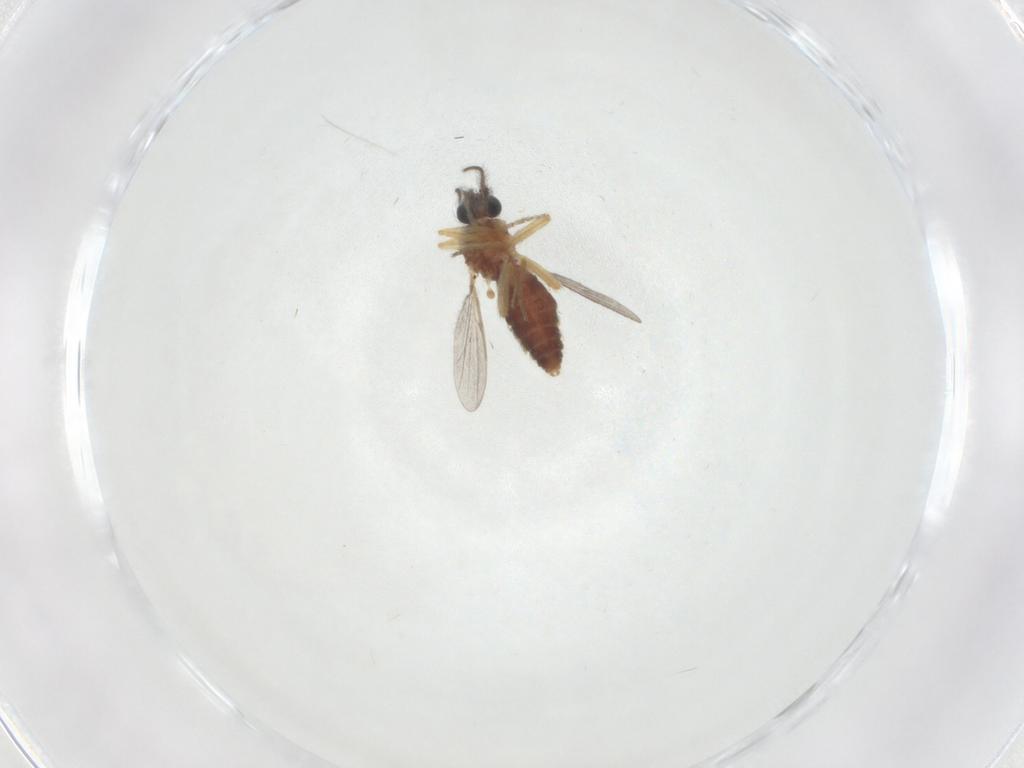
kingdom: Animalia
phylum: Arthropoda
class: Insecta
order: Diptera
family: Ceratopogonidae
